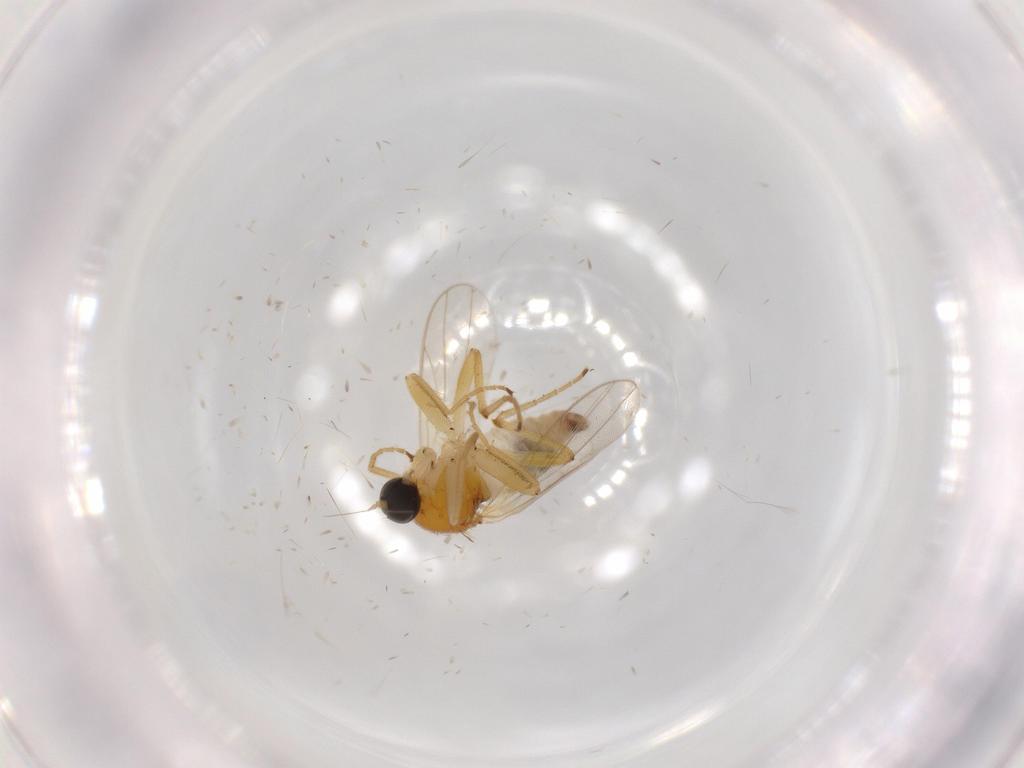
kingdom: Animalia
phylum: Arthropoda
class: Insecta
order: Diptera
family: Hybotidae
